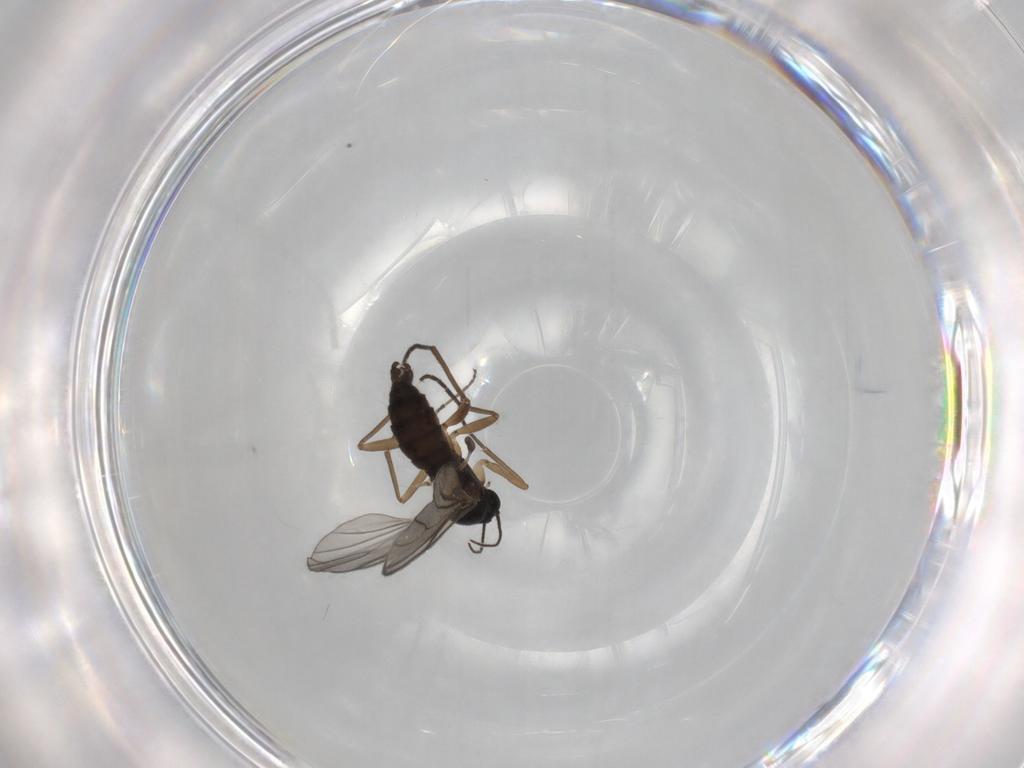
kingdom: Animalia
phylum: Arthropoda
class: Insecta
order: Diptera
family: Sciaridae
